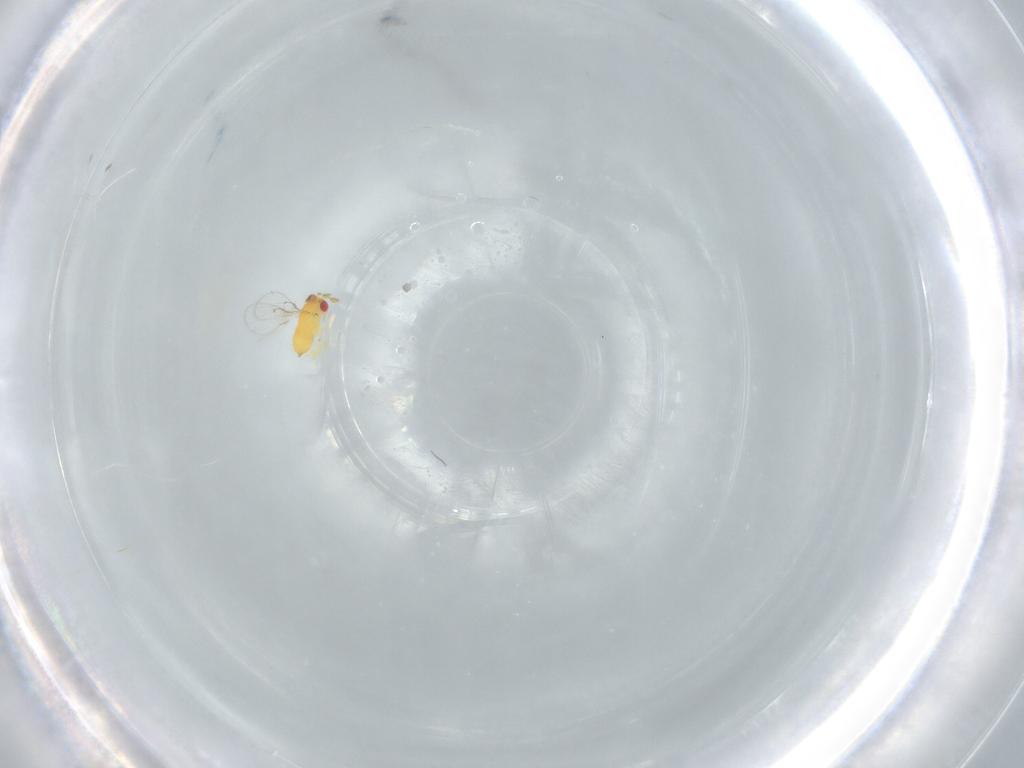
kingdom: Animalia
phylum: Arthropoda
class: Insecta
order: Hymenoptera
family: Trichogrammatidae
